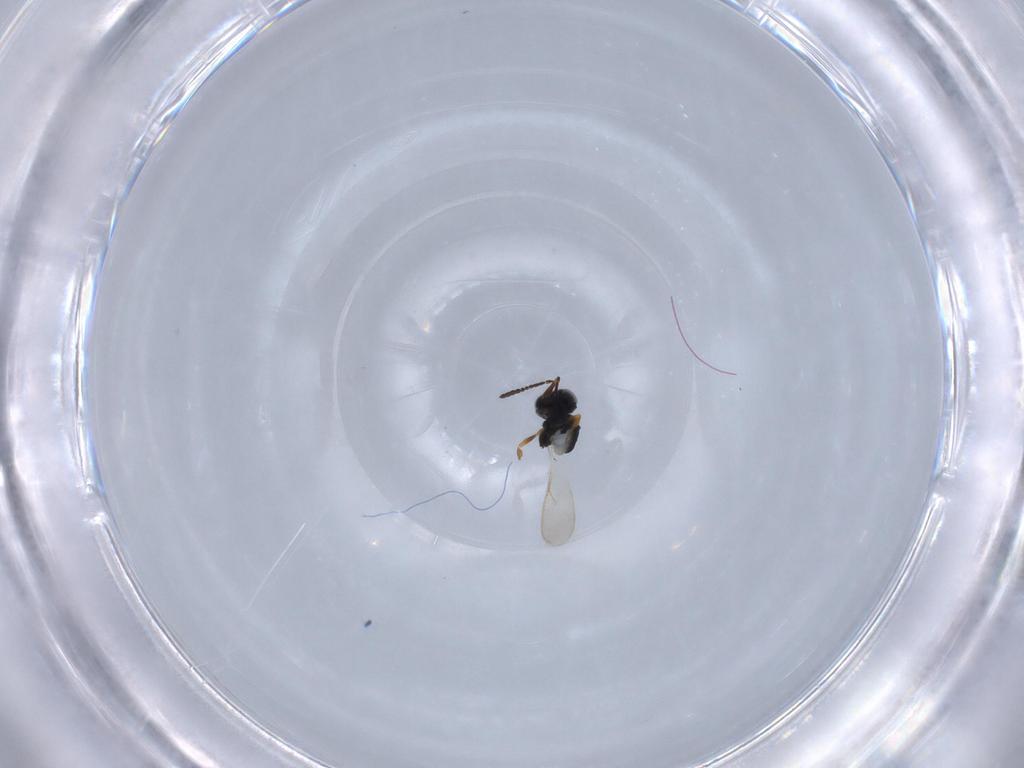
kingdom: Animalia
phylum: Arthropoda
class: Insecta
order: Hymenoptera
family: Scelionidae
